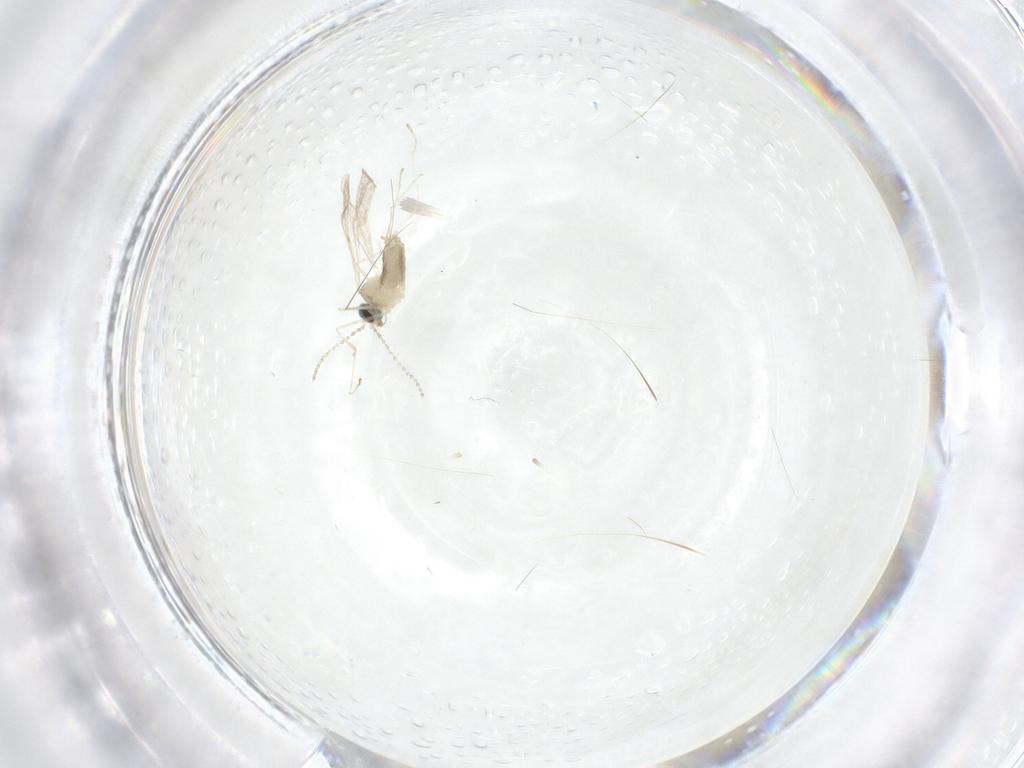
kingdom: Animalia
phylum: Arthropoda
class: Insecta
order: Diptera
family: Cecidomyiidae
